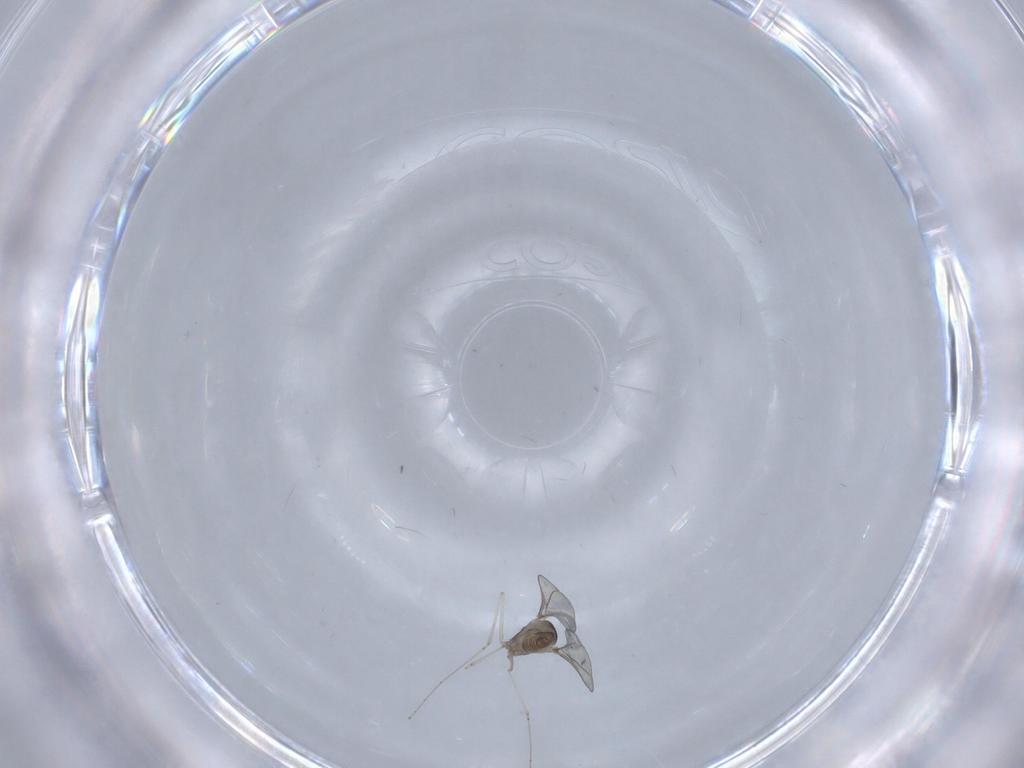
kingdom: Animalia
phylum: Arthropoda
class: Insecta
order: Diptera
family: Cecidomyiidae
